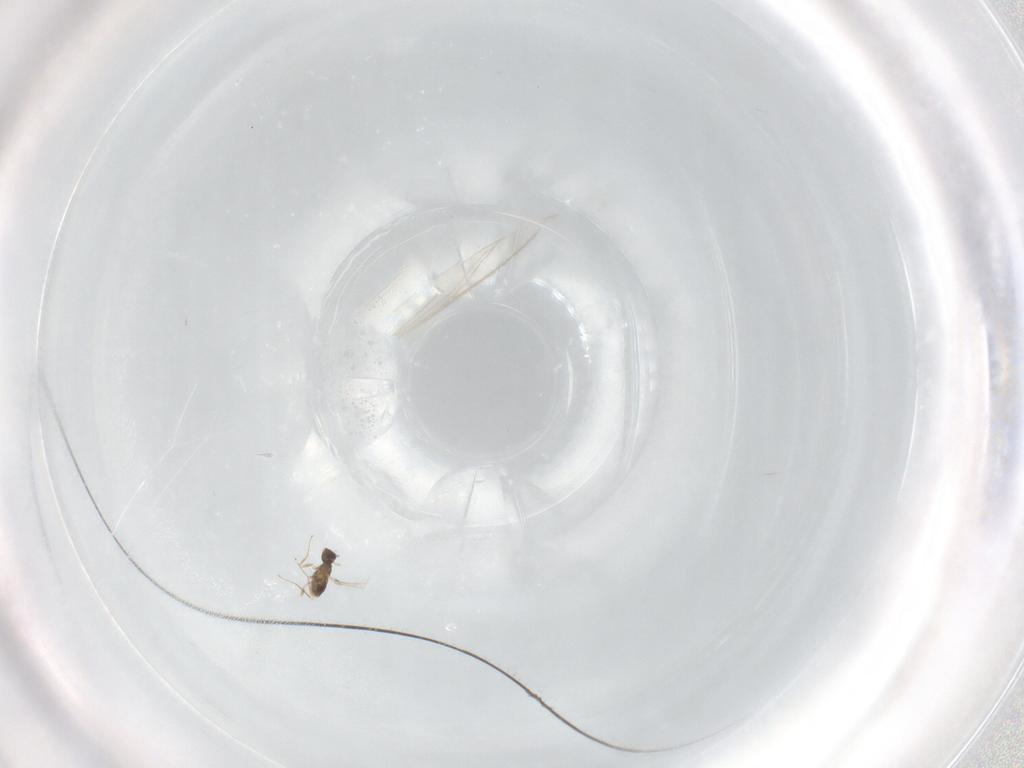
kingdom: Animalia
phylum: Arthropoda
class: Insecta
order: Hymenoptera
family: Mymaridae
